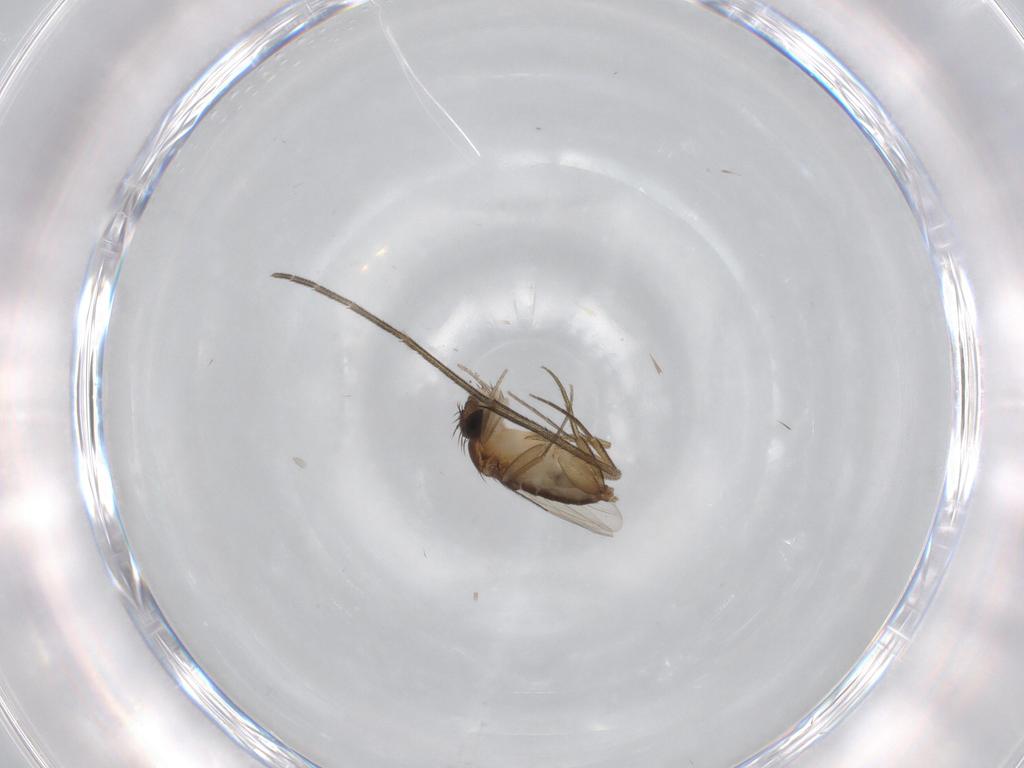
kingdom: Animalia
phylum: Arthropoda
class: Insecta
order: Diptera
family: Phoridae
